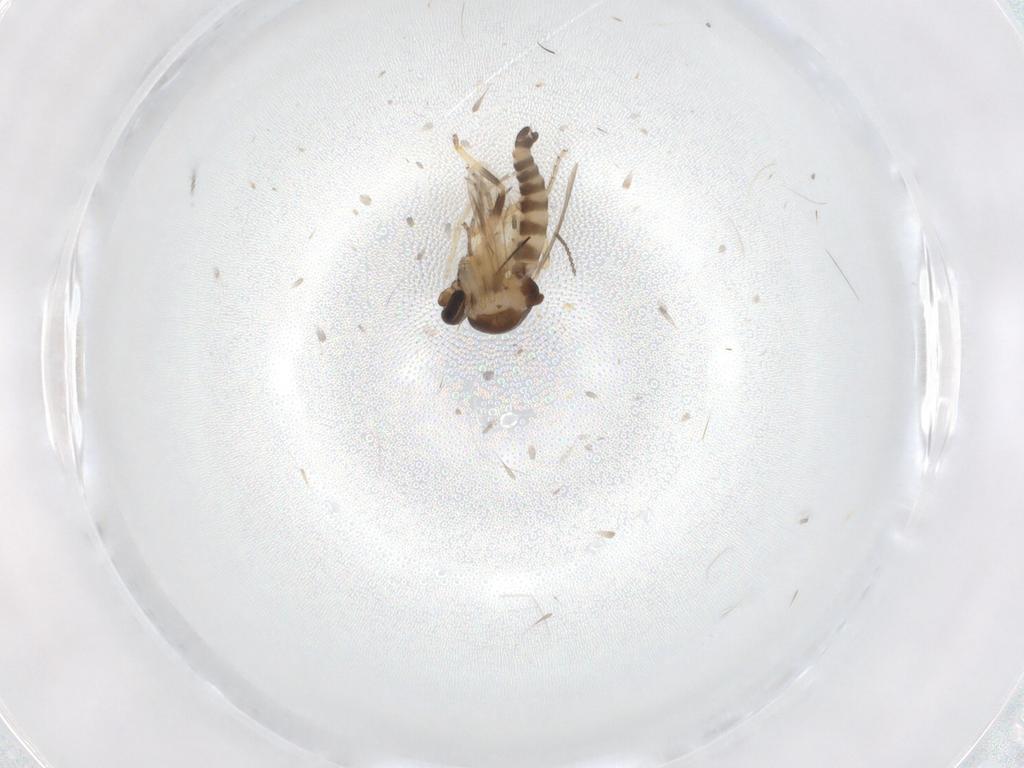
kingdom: Animalia
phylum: Arthropoda
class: Insecta
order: Diptera
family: Ceratopogonidae
